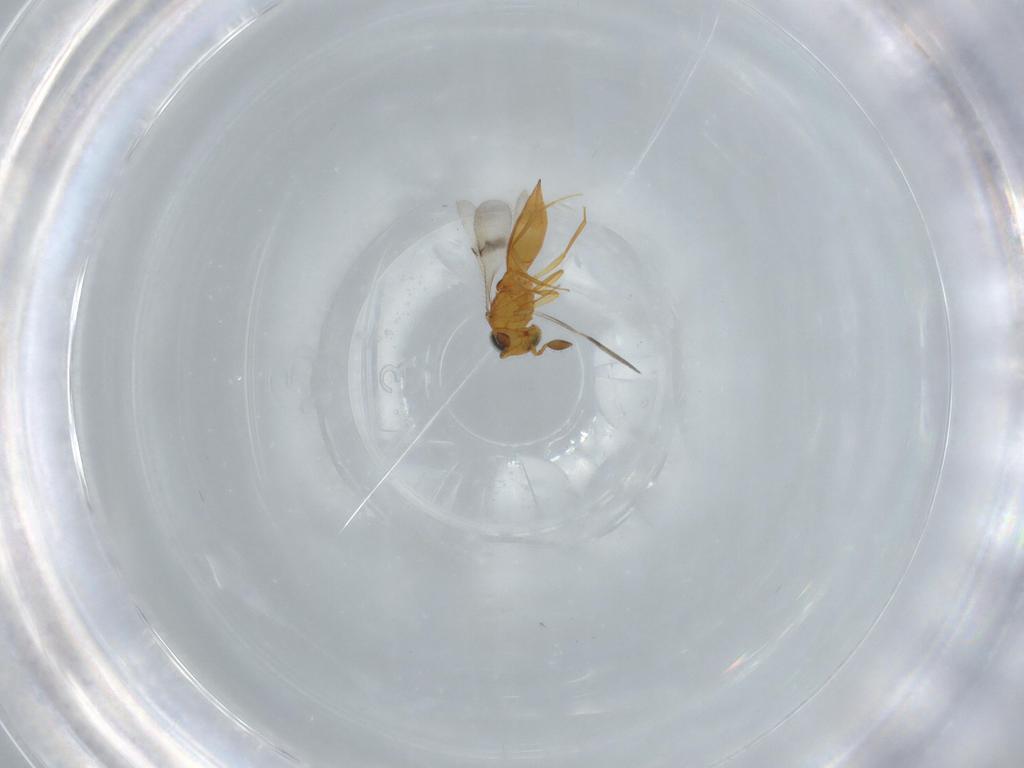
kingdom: Animalia
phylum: Arthropoda
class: Insecta
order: Hymenoptera
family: Scelionidae
